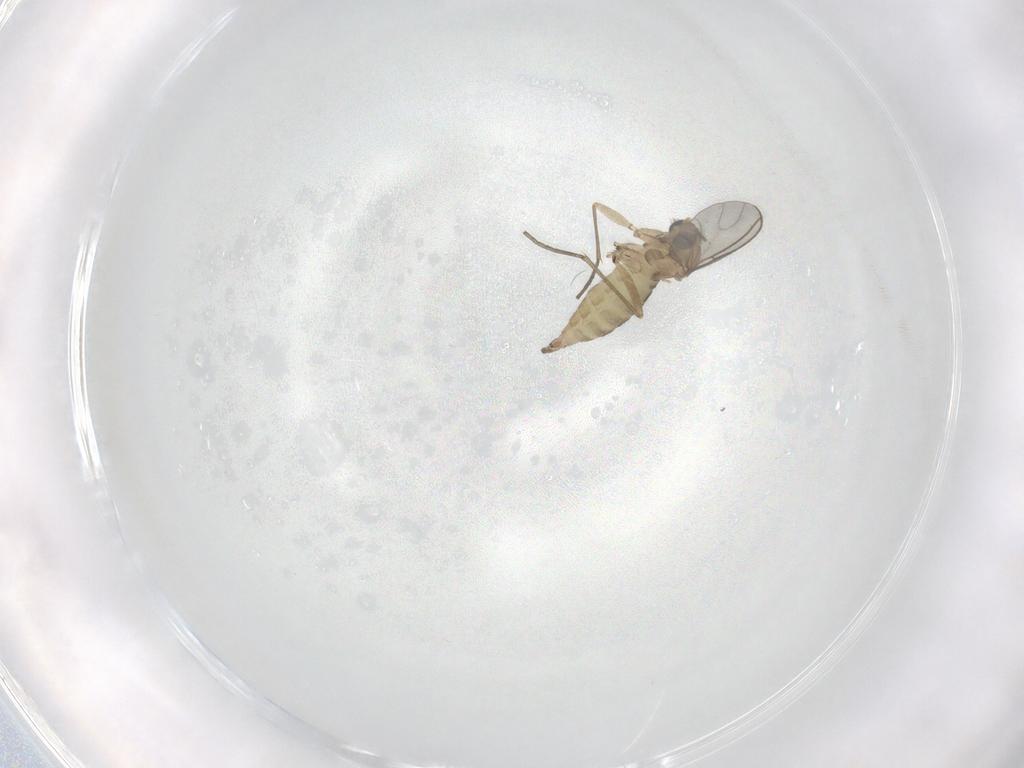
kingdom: Animalia
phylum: Arthropoda
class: Insecta
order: Diptera
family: Sciaridae
